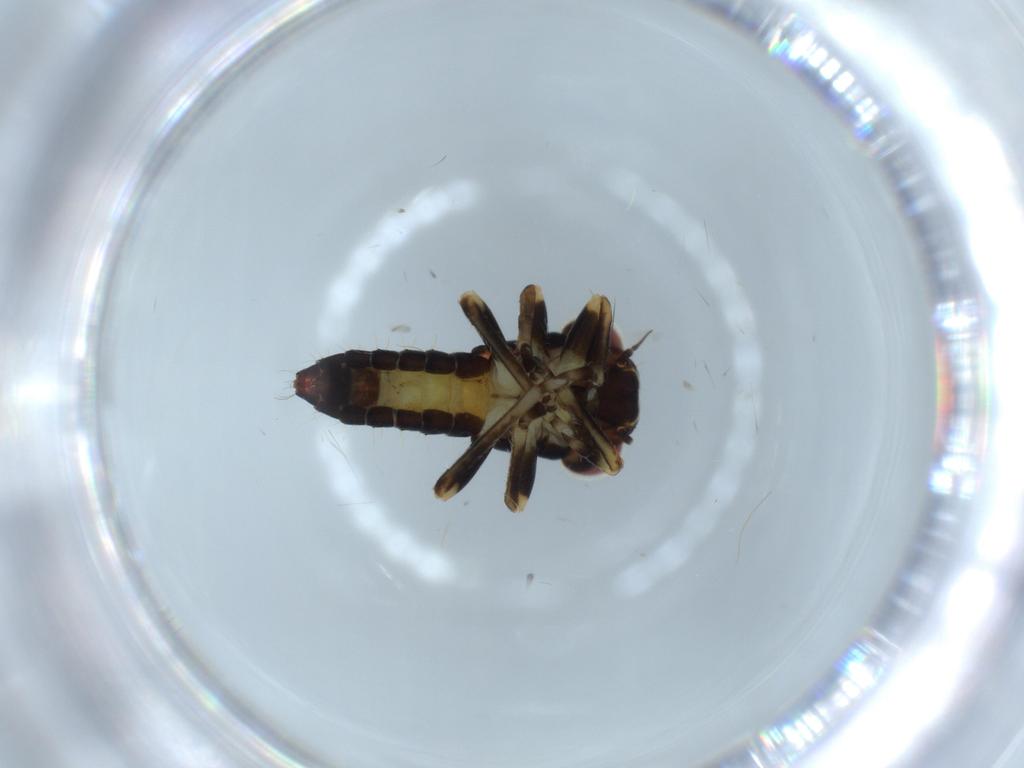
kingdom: Animalia
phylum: Arthropoda
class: Insecta
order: Hemiptera
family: Cicadellidae
